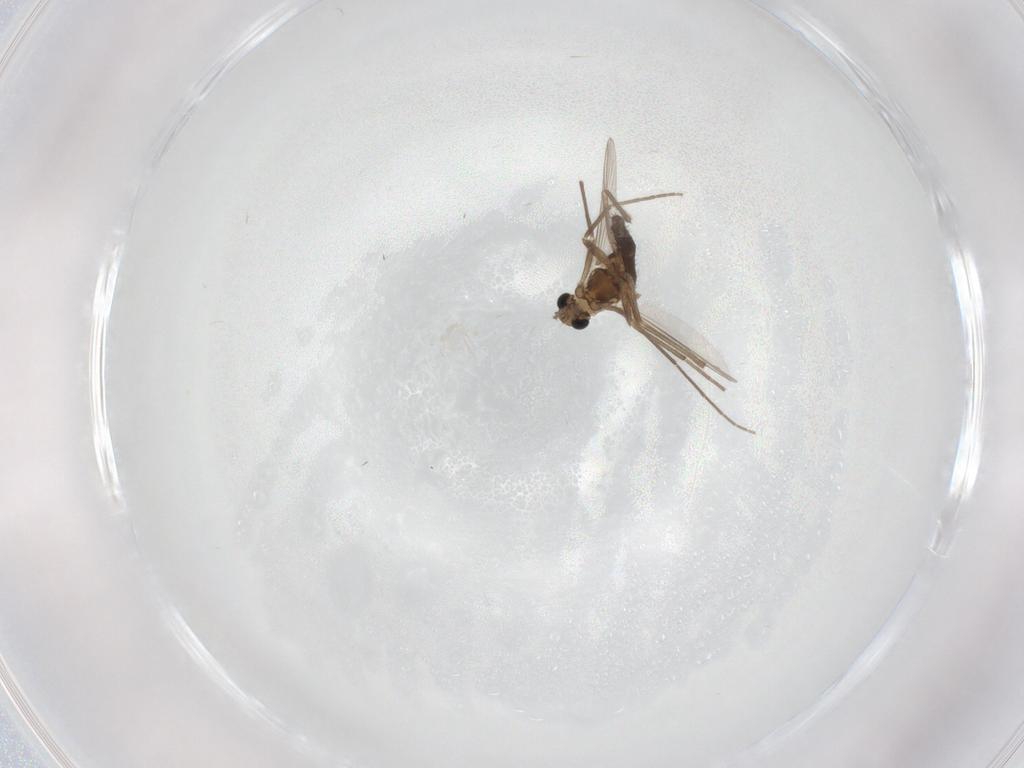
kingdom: Animalia
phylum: Arthropoda
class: Insecta
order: Diptera
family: Chironomidae
